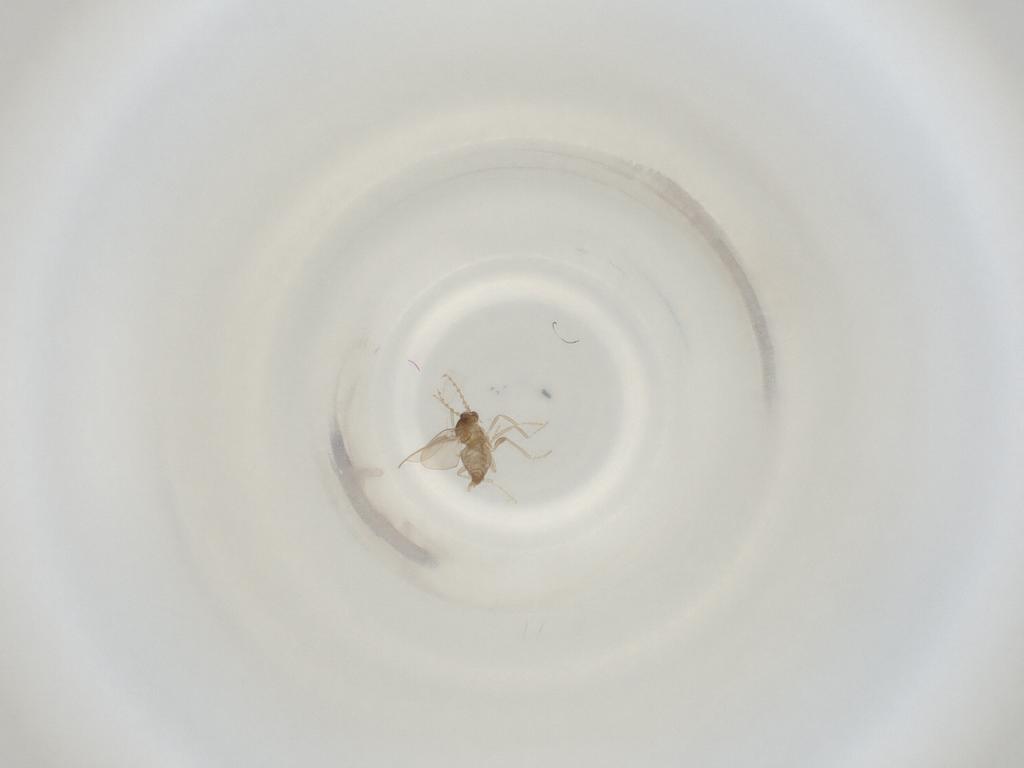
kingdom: Animalia
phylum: Arthropoda
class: Insecta
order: Diptera
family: Cecidomyiidae
